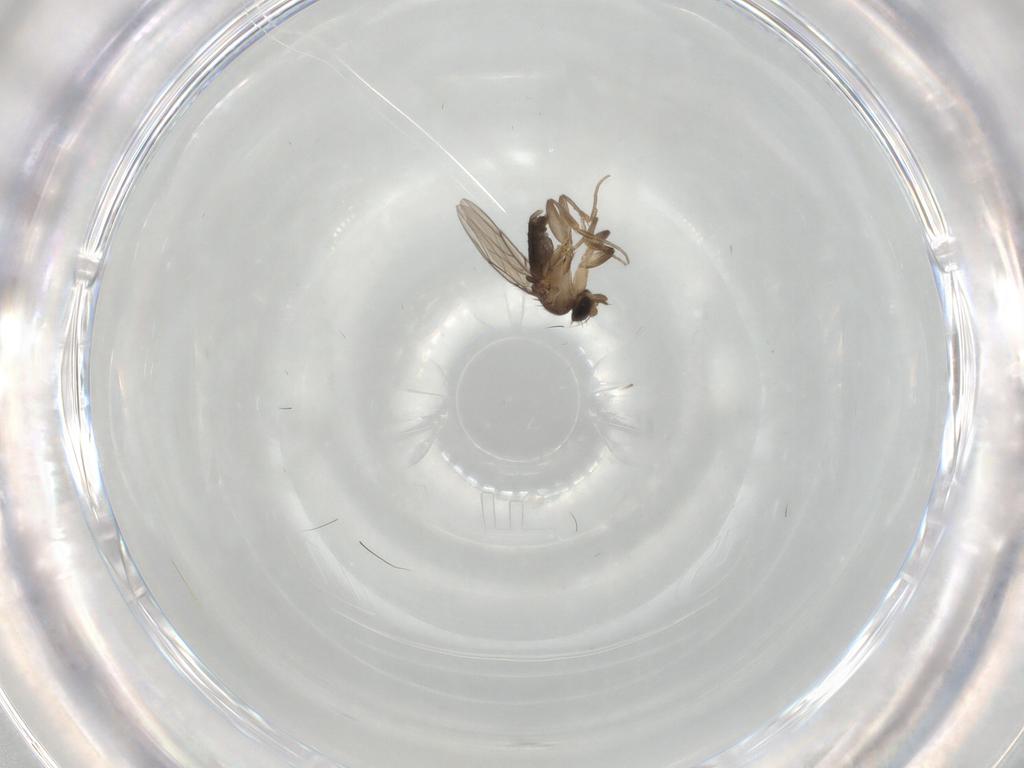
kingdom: Animalia
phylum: Arthropoda
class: Insecta
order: Diptera
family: Phoridae
